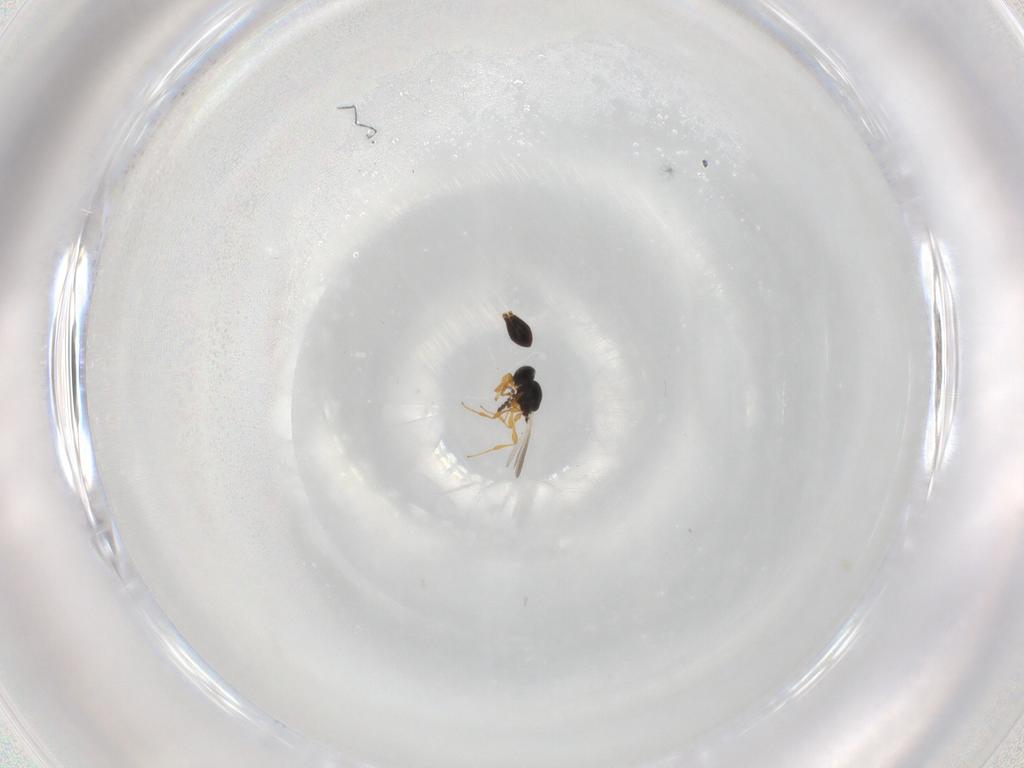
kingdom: Animalia
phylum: Arthropoda
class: Insecta
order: Hymenoptera
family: Platygastridae
